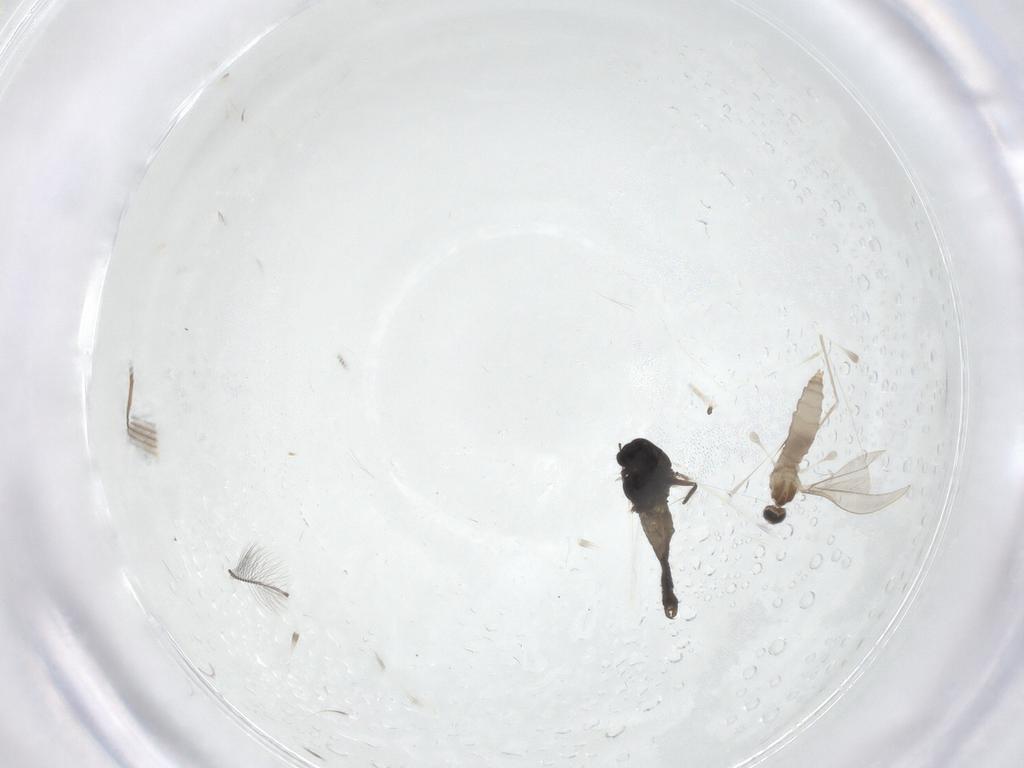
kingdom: Animalia
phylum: Arthropoda
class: Insecta
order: Diptera
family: Chironomidae
